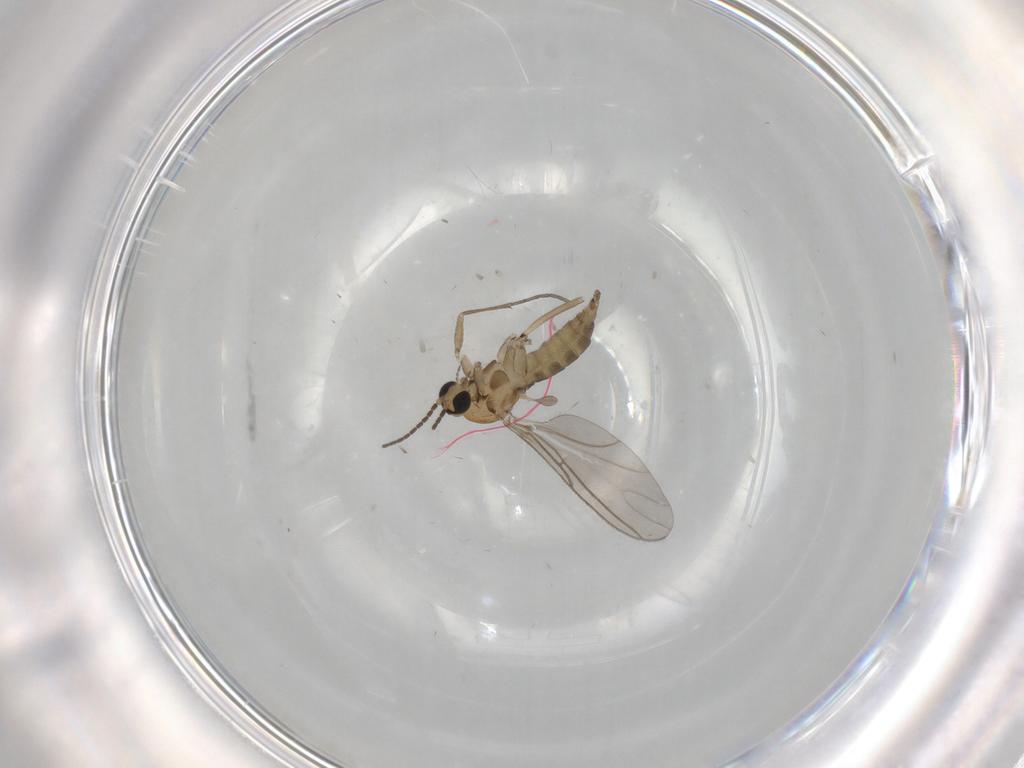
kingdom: Animalia
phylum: Arthropoda
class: Insecta
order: Diptera
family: Sciaridae
